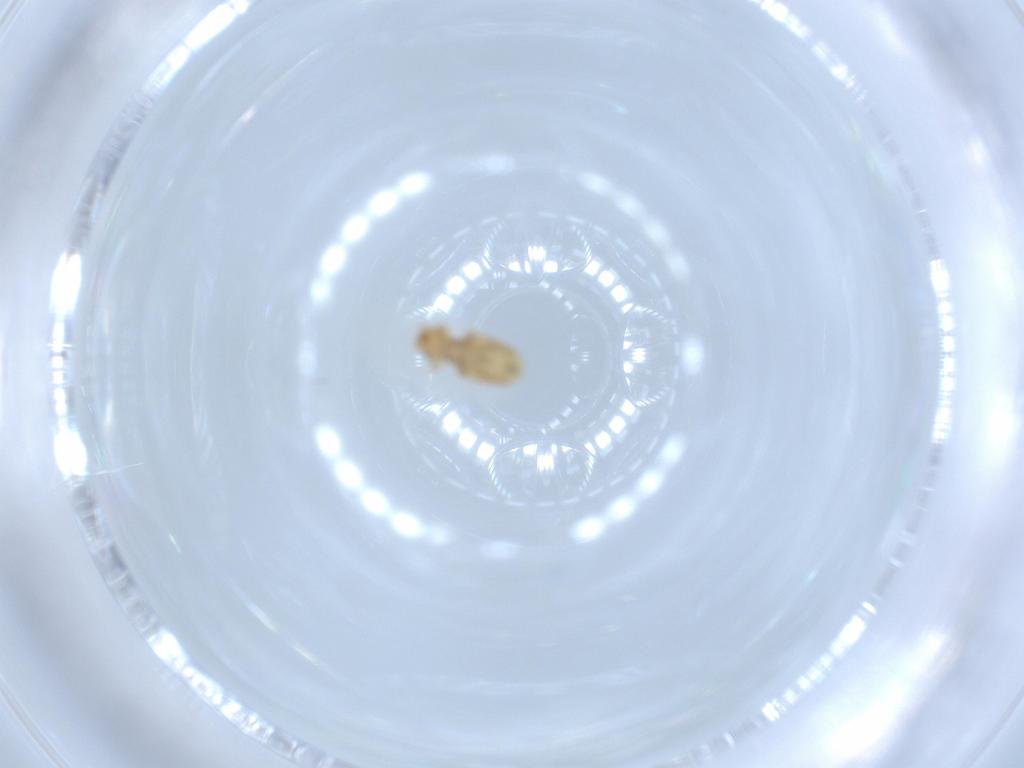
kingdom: Animalia
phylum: Arthropoda
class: Insecta
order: Psocodea
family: Liposcelididae
